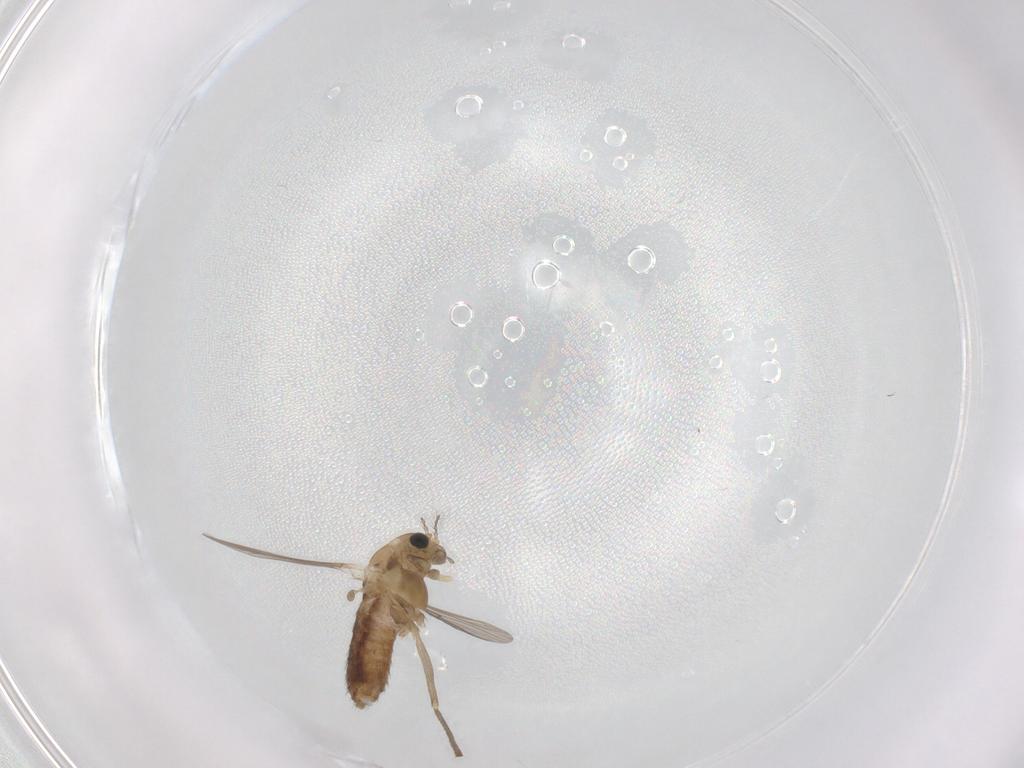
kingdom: Animalia
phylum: Arthropoda
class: Insecta
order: Diptera
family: Chironomidae
